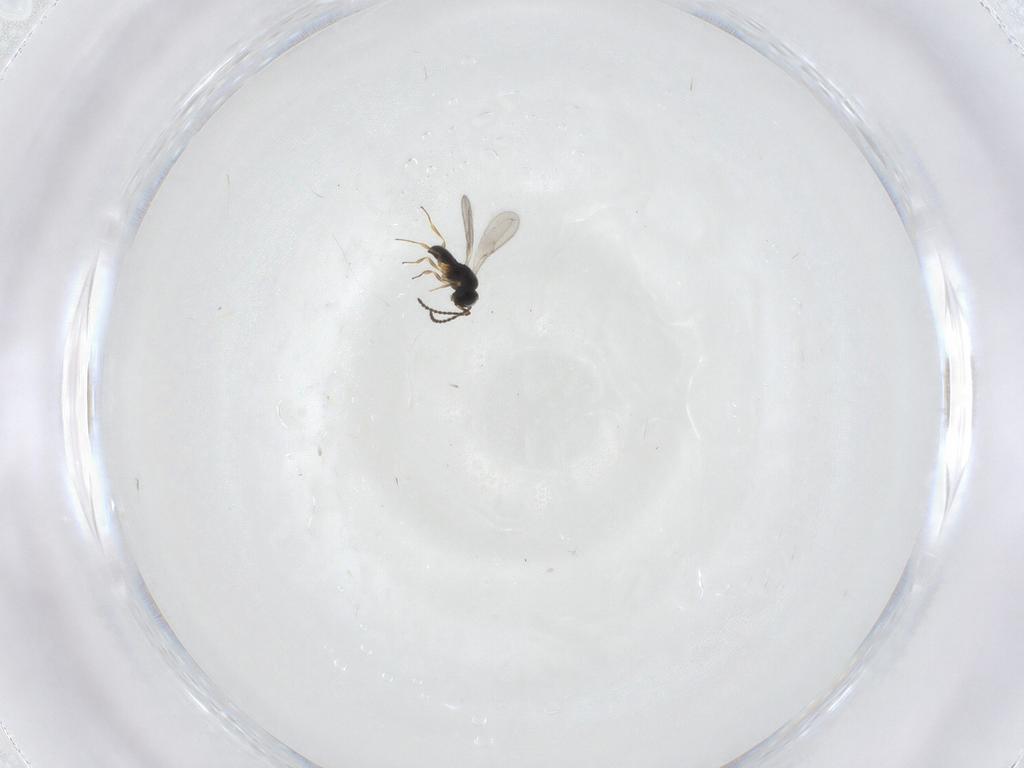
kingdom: Animalia
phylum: Arthropoda
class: Insecta
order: Hymenoptera
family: Scelionidae
